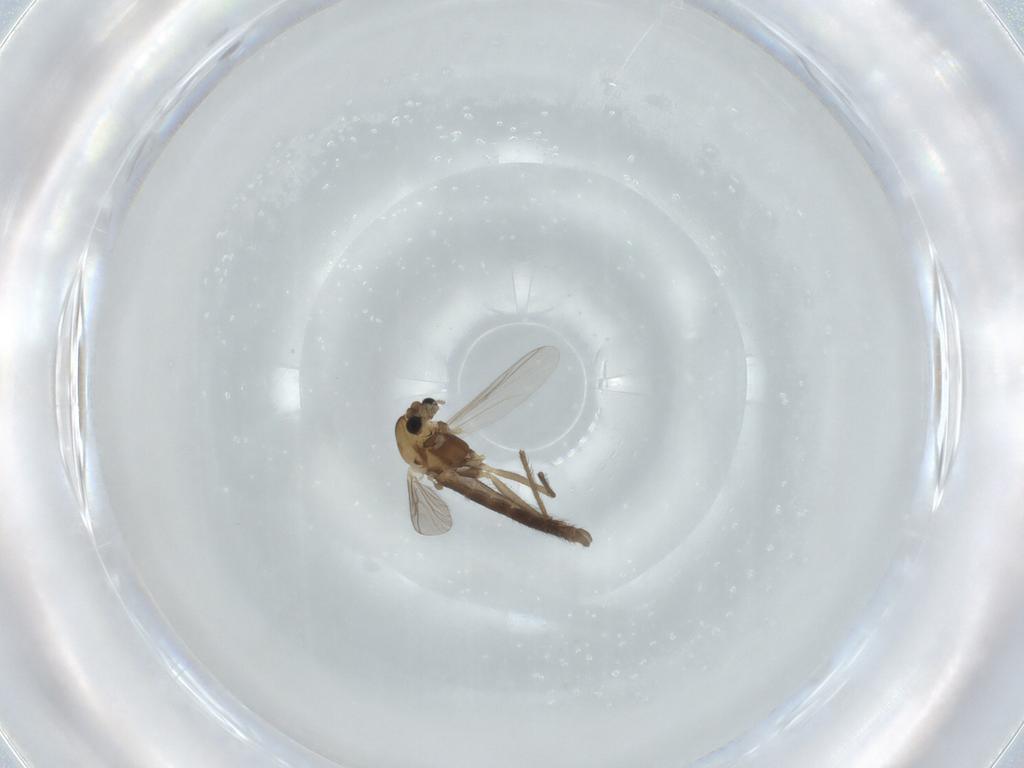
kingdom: Animalia
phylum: Arthropoda
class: Insecta
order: Diptera
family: Chironomidae
